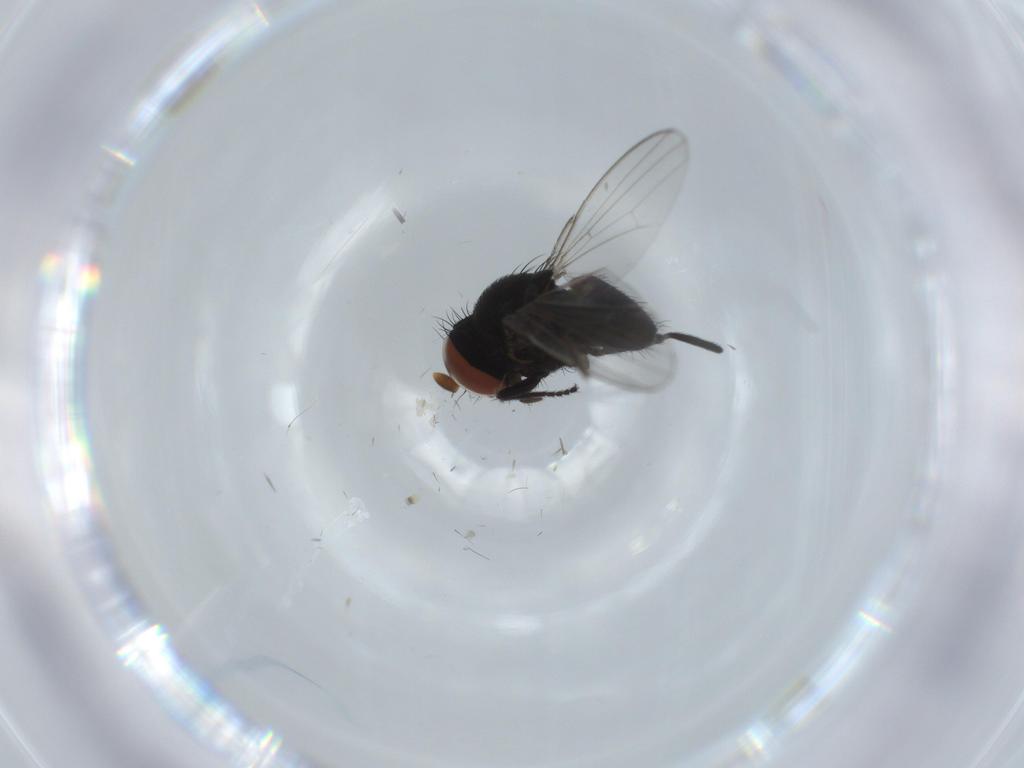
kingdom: Animalia
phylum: Arthropoda
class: Insecta
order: Diptera
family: Milichiidae
